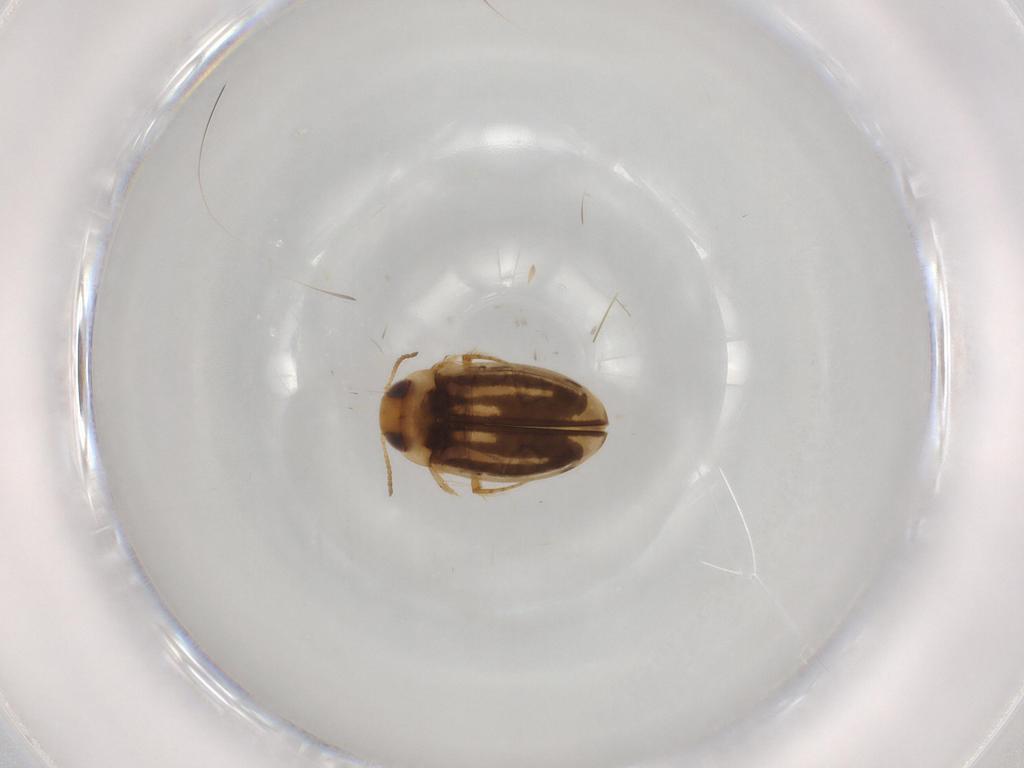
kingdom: Animalia
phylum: Arthropoda
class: Insecta
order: Coleoptera
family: Dytiscidae
